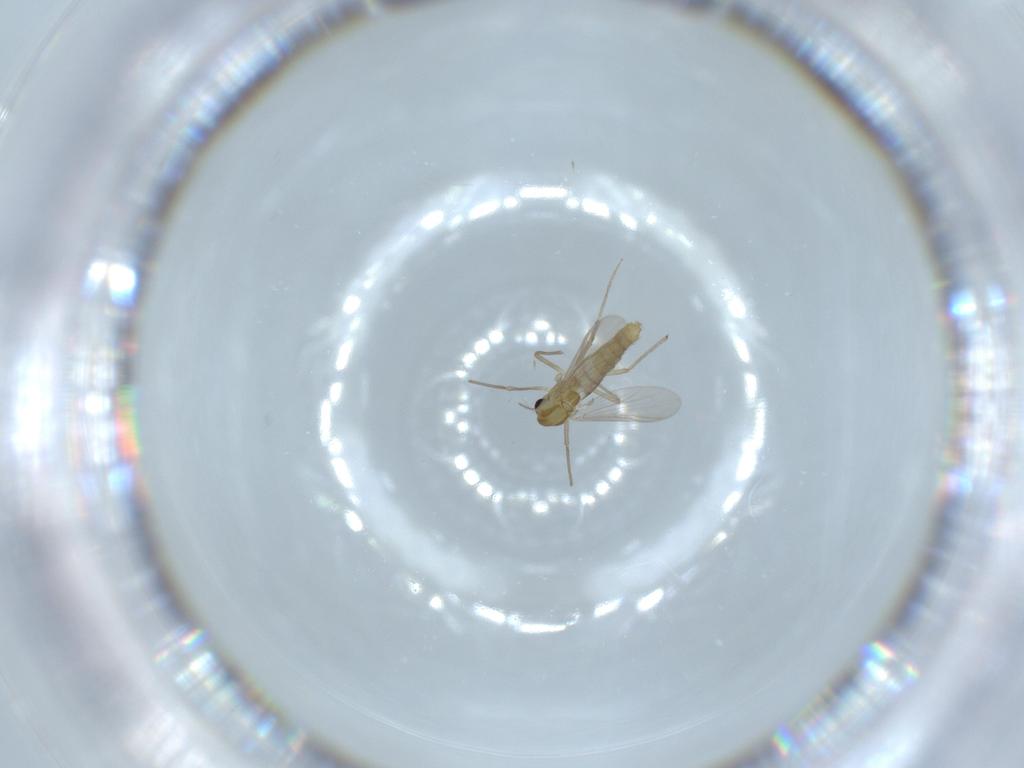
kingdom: Animalia
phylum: Arthropoda
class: Insecta
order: Diptera
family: Chironomidae
